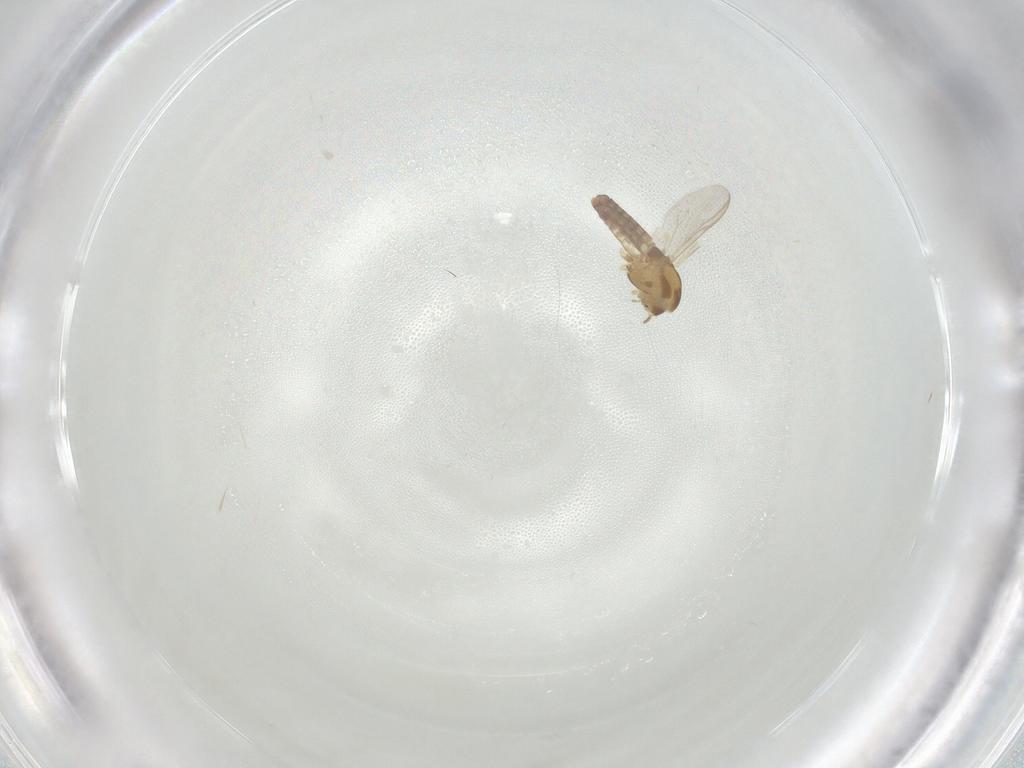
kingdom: Animalia
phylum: Arthropoda
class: Insecta
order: Diptera
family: Chironomidae
